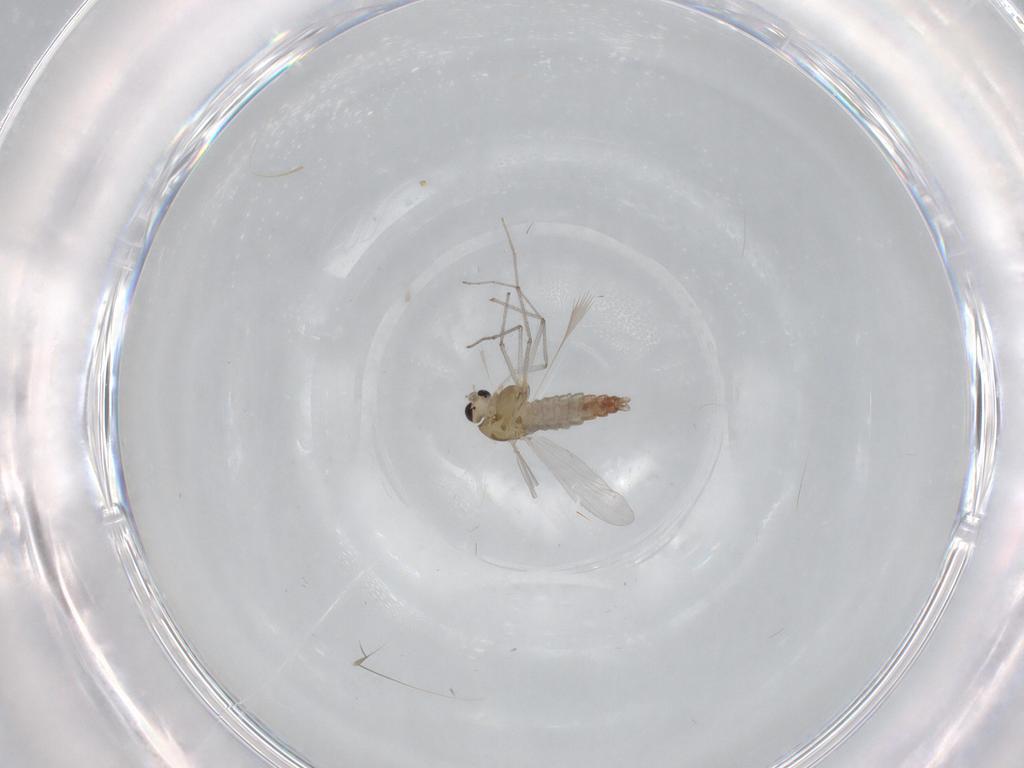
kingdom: Animalia
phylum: Arthropoda
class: Insecta
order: Diptera
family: Chironomidae
